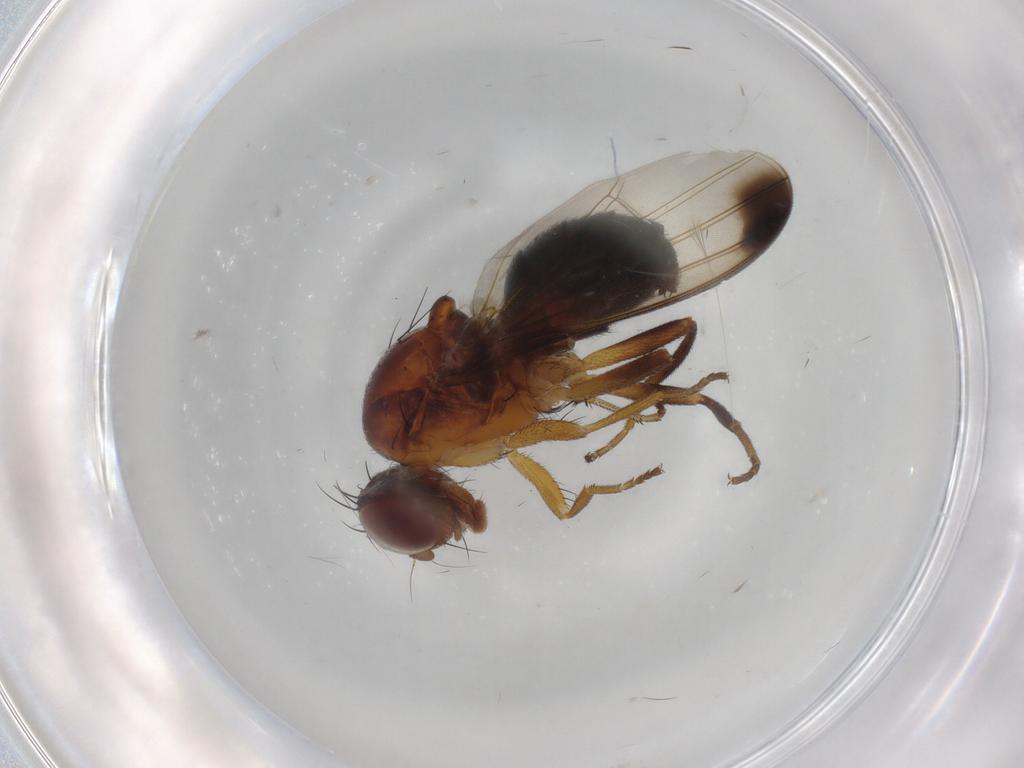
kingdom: Animalia
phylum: Arthropoda
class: Insecta
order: Diptera
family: Piophilidae
